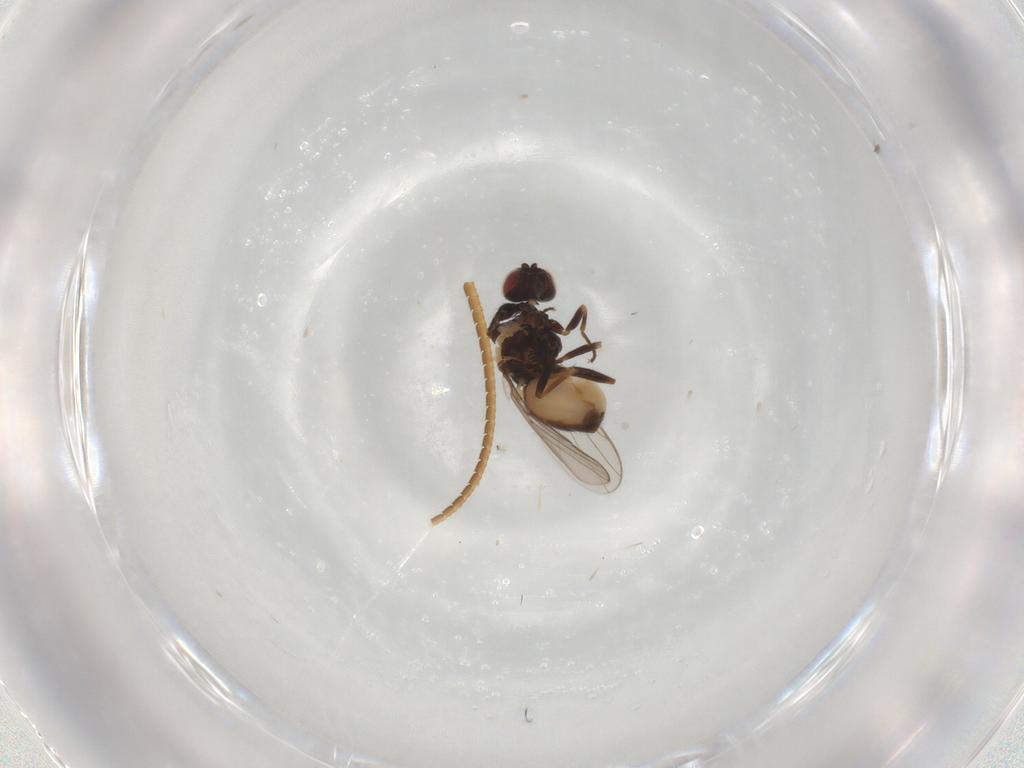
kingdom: Animalia
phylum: Arthropoda
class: Insecta
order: Diptera
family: Chloropidae
